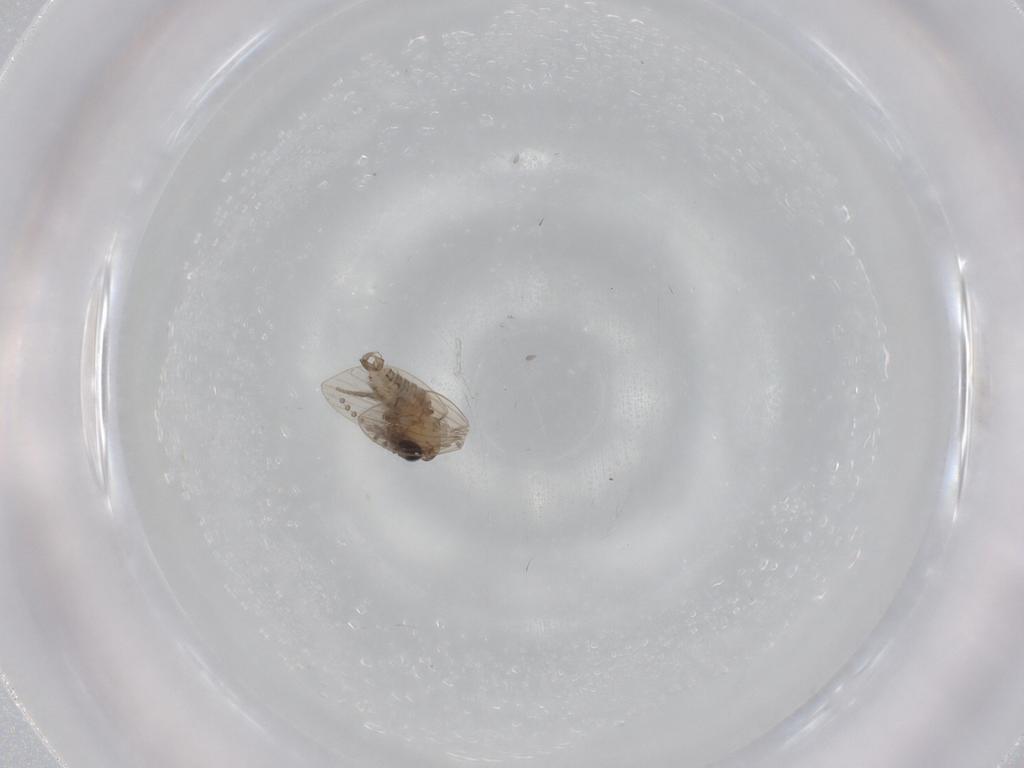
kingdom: Animalia
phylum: Arthropoda
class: Insecta
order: Diptera
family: Psychodidae
